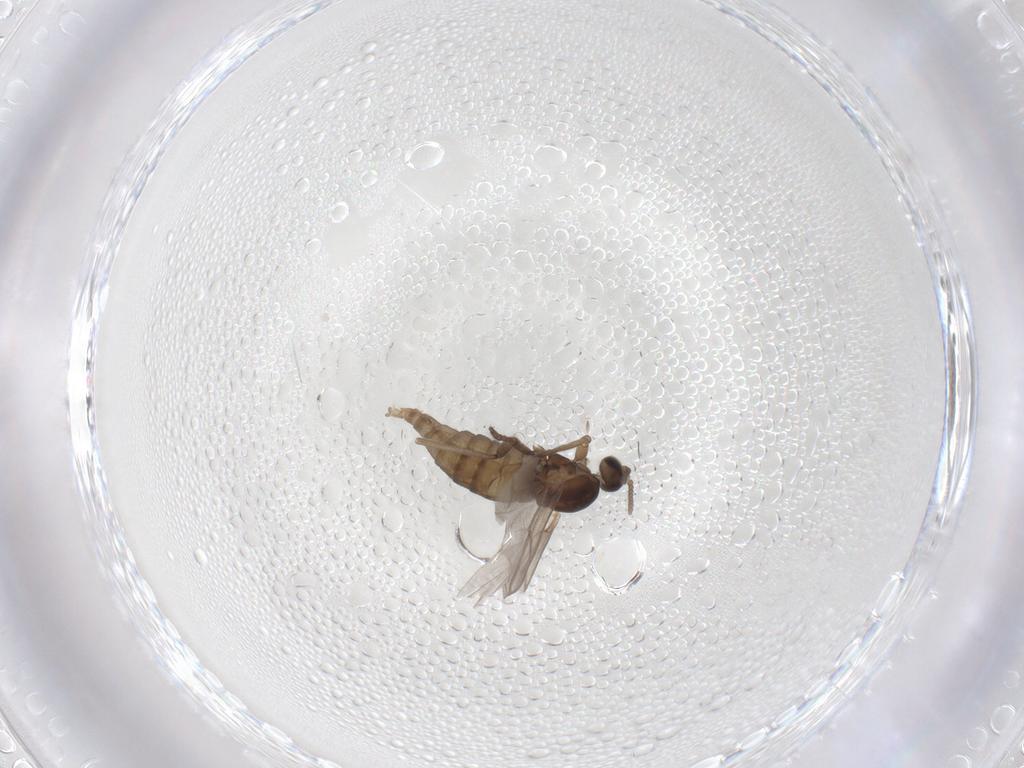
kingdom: Animalia
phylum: Arthropoda
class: Insecta
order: Diptera
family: Cecidomyiidae
